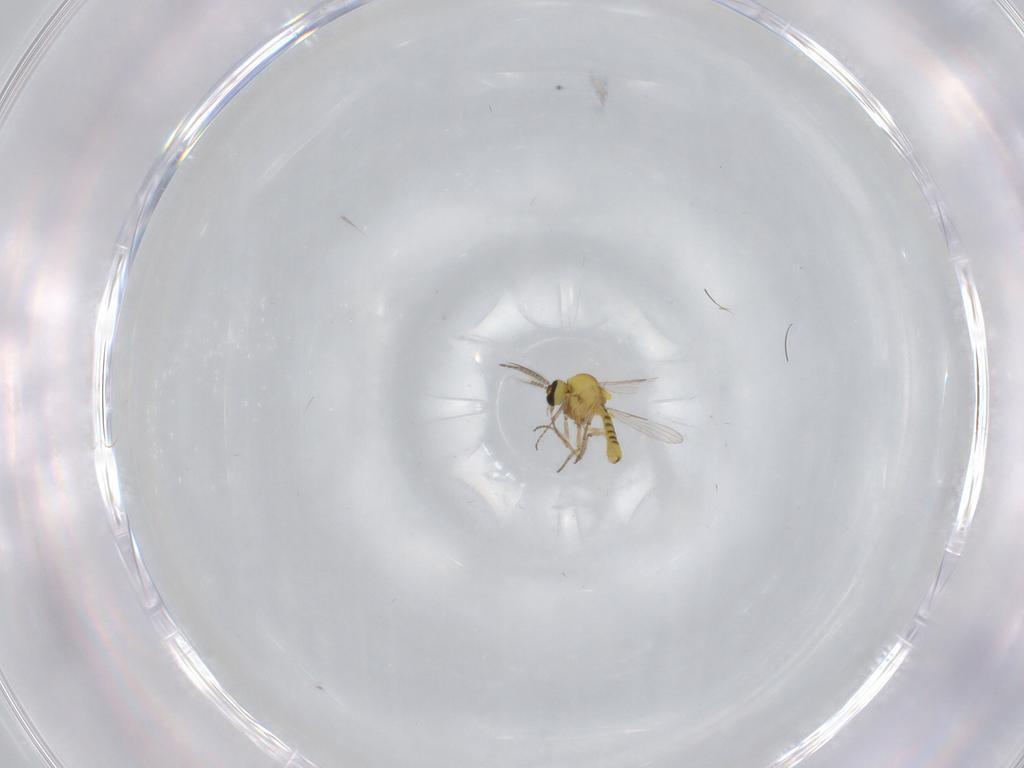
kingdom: Animalia
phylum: Arthropoda
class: Insecta
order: Diptera
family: Ceratopogonidae
